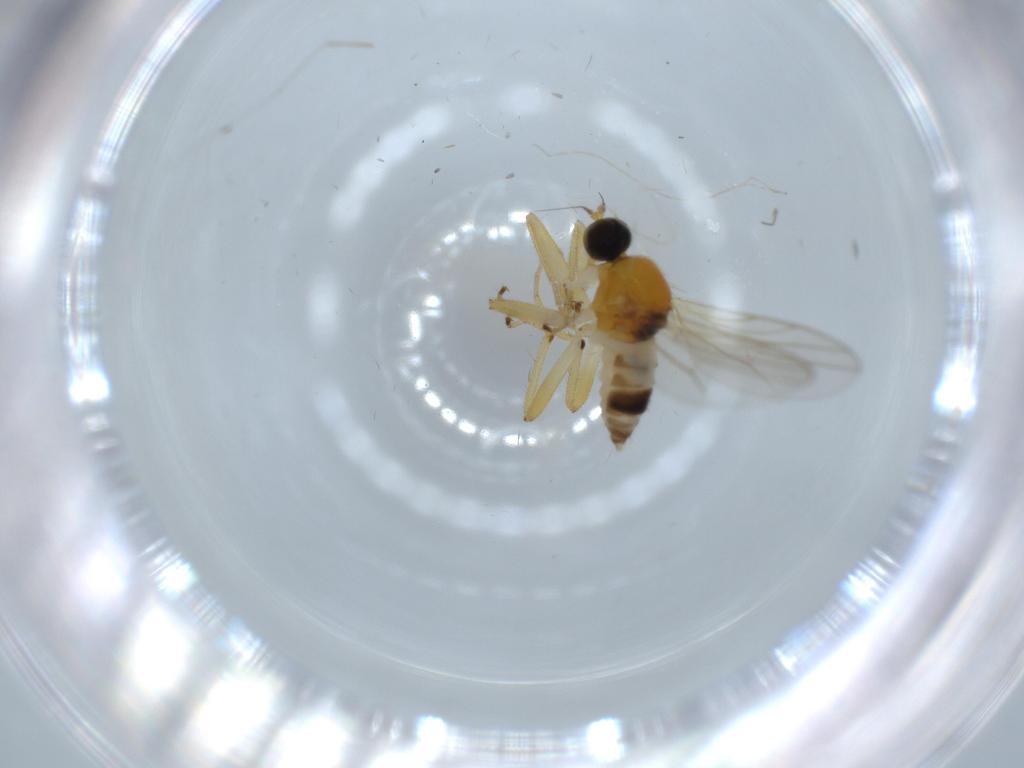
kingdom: Animalia
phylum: Arthropoda
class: Insecta
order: Diptera
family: Hybotidae
